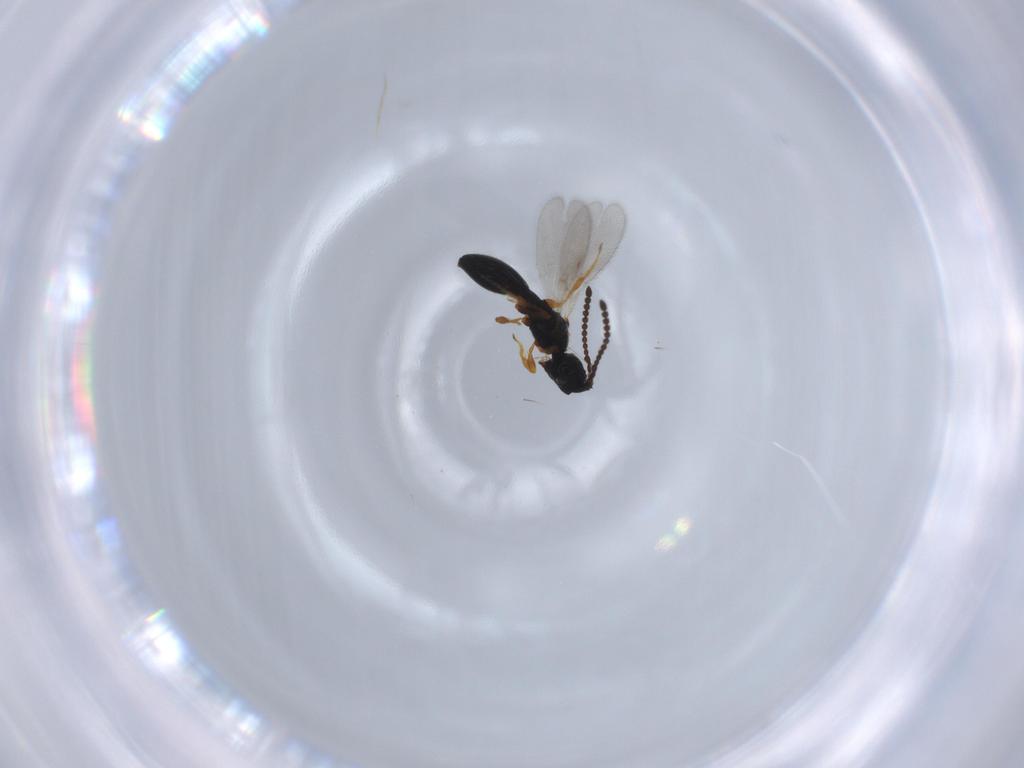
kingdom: Animalia
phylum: Arthropoda
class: Insecta
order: Hymenoptera
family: Diapriidae
